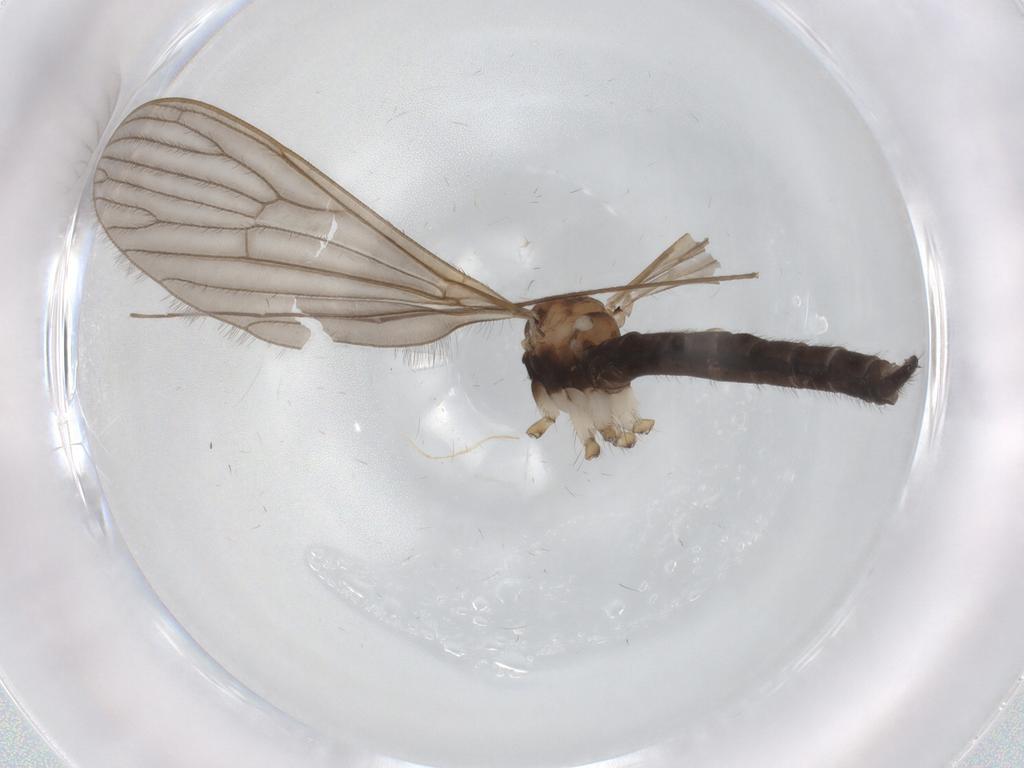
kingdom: Animalia
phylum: Arthropoda
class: Insecta
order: Diptera
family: Limoniidae
